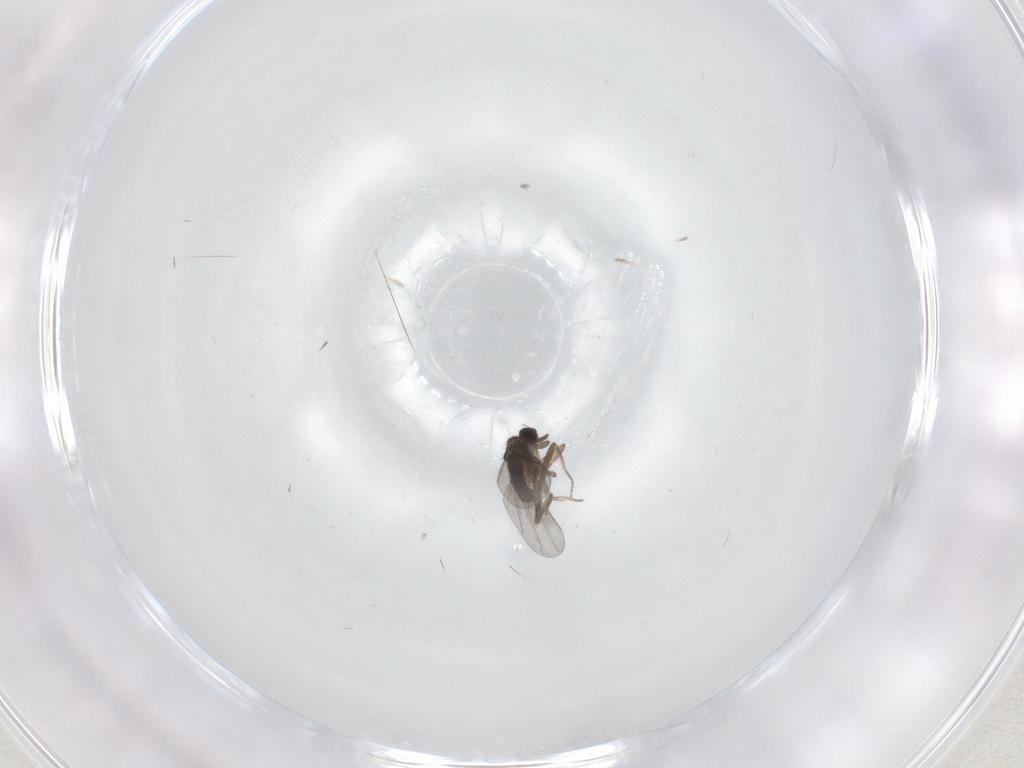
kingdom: Animalia
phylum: Arthropoda
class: Insecta
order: Diptera
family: Cecidomyiidae
